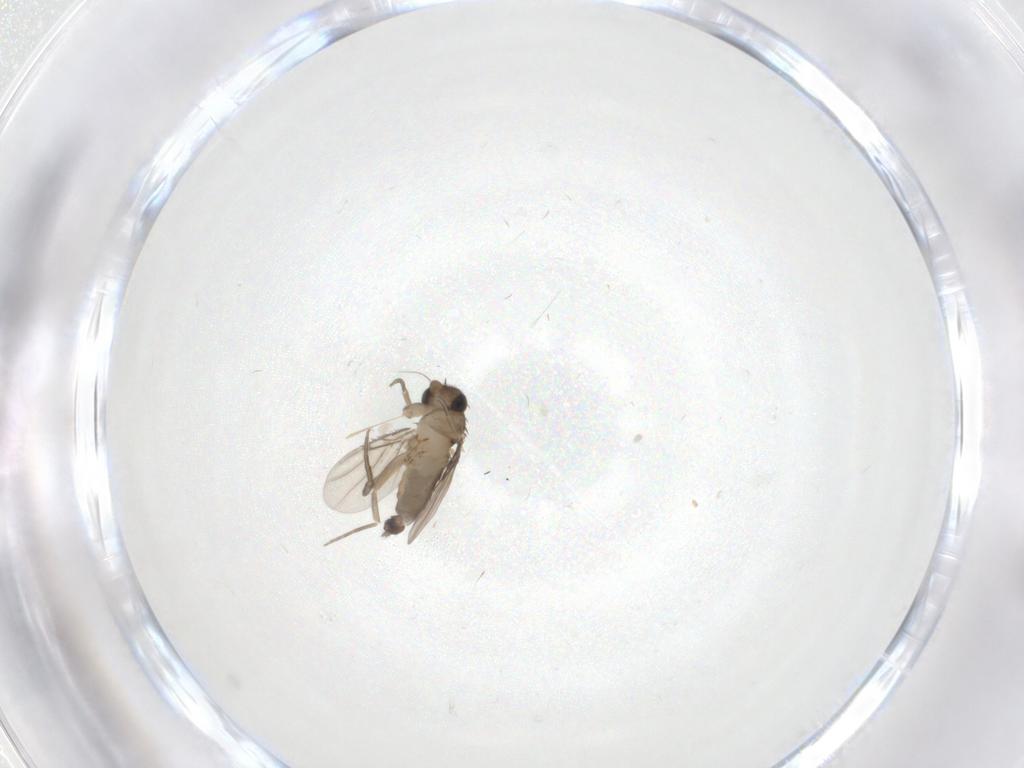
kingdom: Animalia
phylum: Arthropoda
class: Insecta
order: Diptera
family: Phoridae
